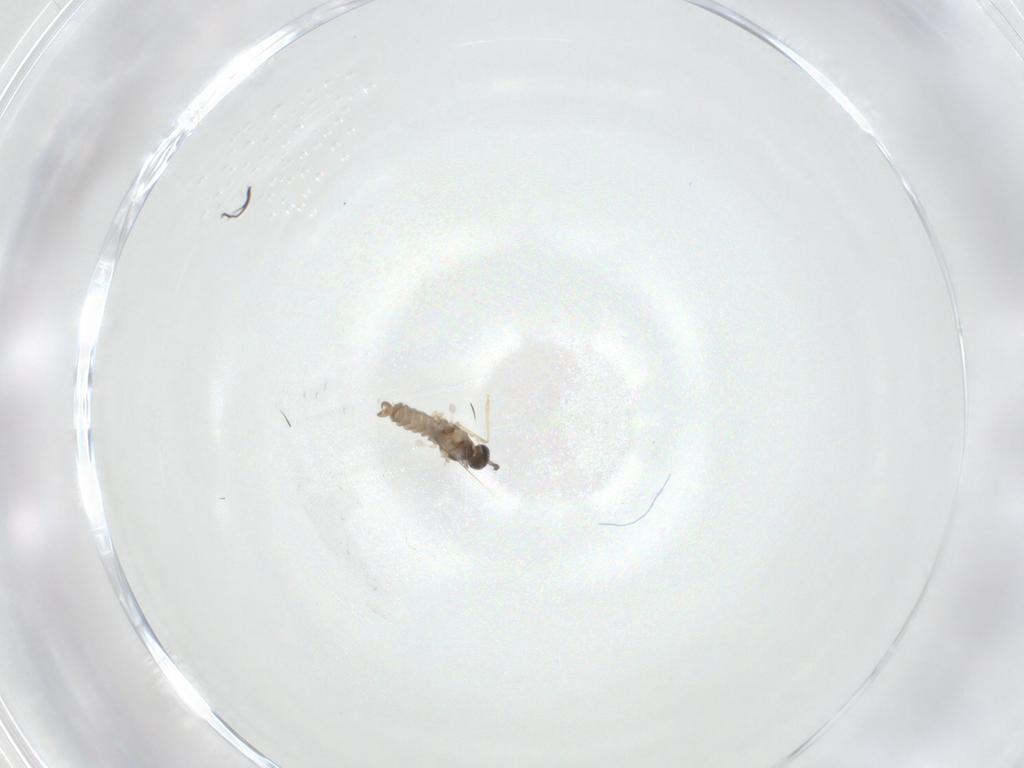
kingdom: Animalia
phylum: Arthropoda
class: Insecta
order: Diptera
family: Cecidomyiidae
